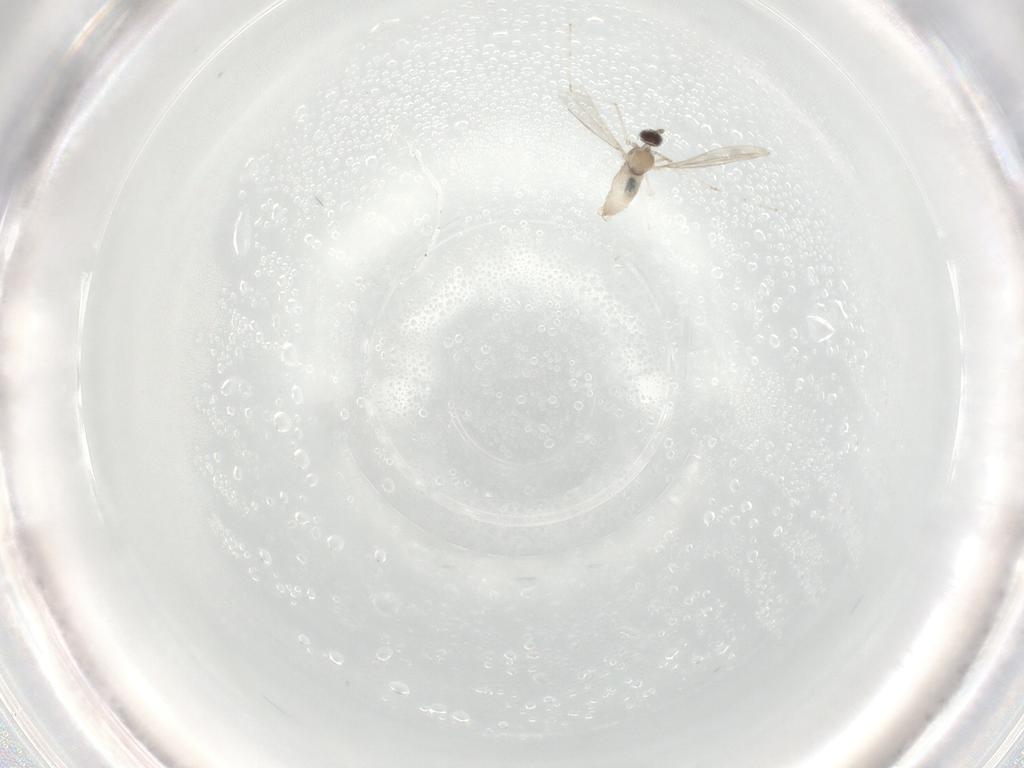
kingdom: Animalia
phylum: Arthropoda
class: Insecta
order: Diptera
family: Cecidomyiidae
